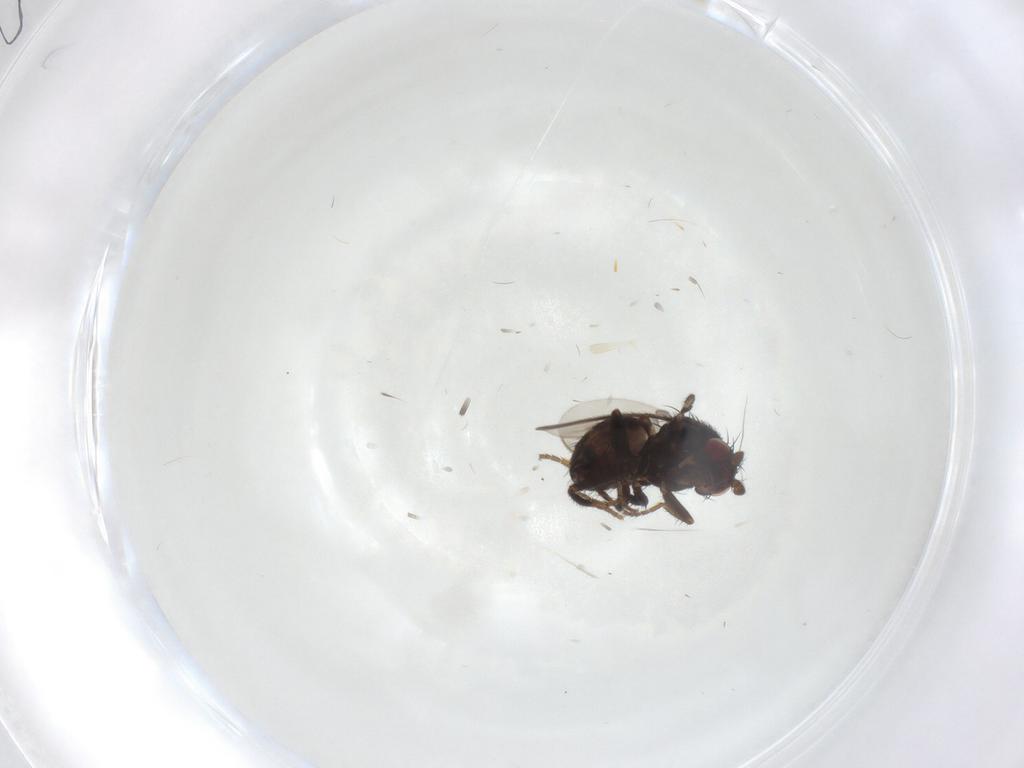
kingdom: Animalia
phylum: Arthropoda
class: Insecta
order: Diptera
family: Sphaeroceridae
